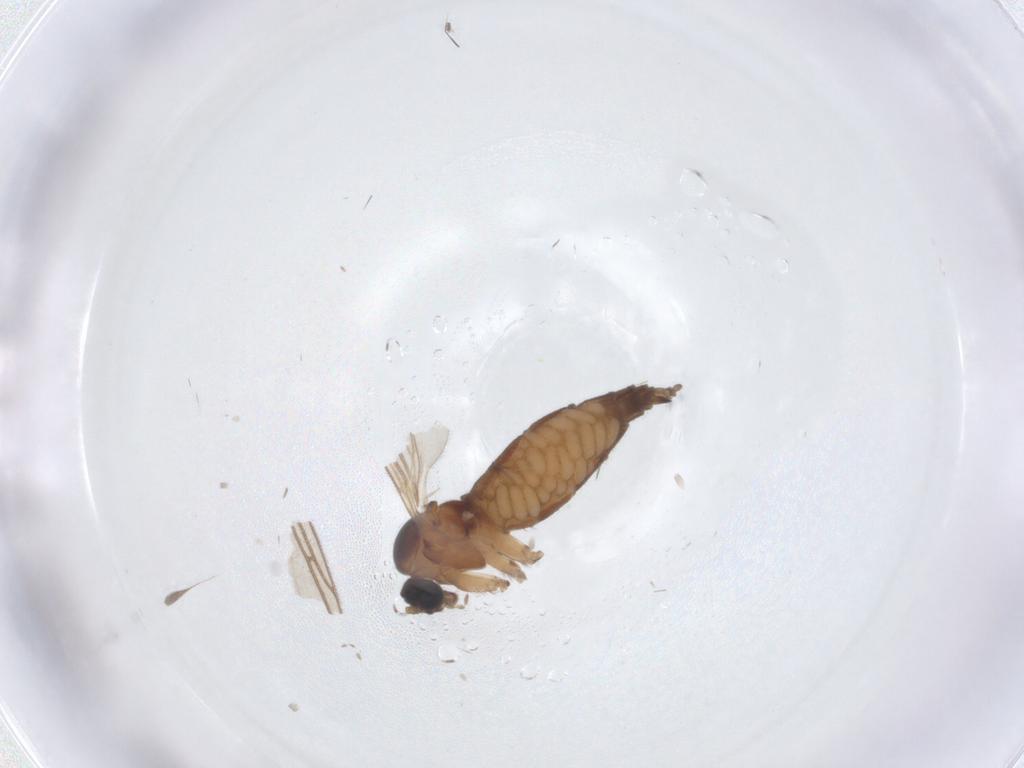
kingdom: Animalia
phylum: Arthropoda
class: Insecta
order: Diptera
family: Sciaridae
